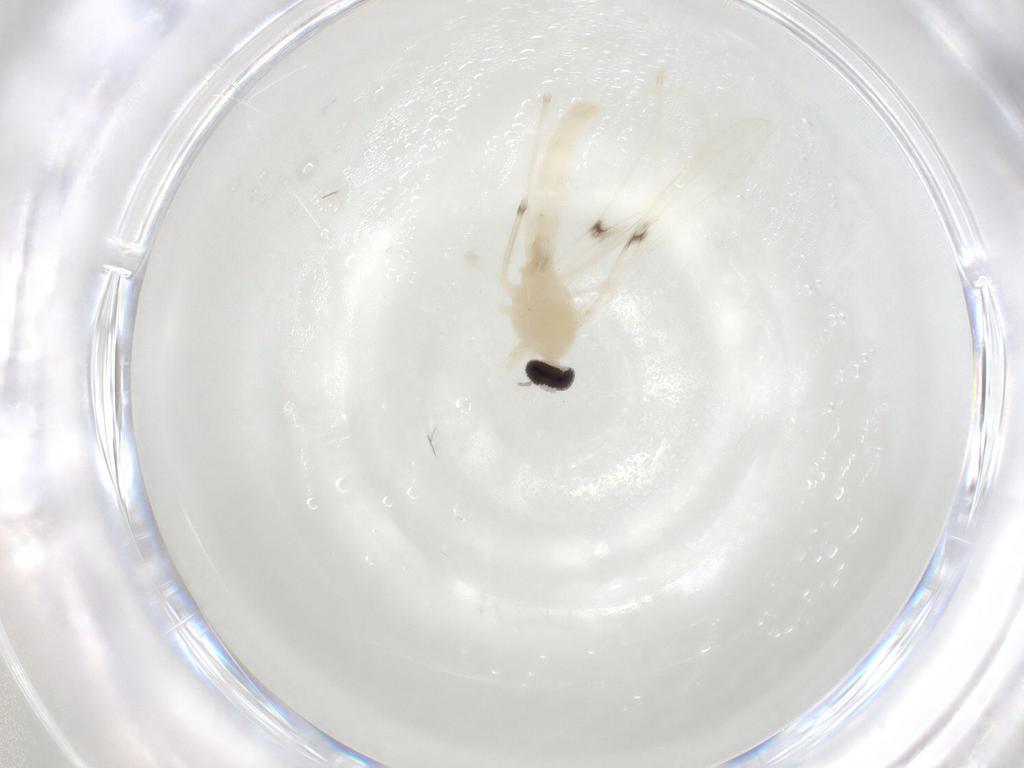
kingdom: Animalia
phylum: Arthropoda
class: Insecta
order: Diptera
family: Cecidomyiidae
